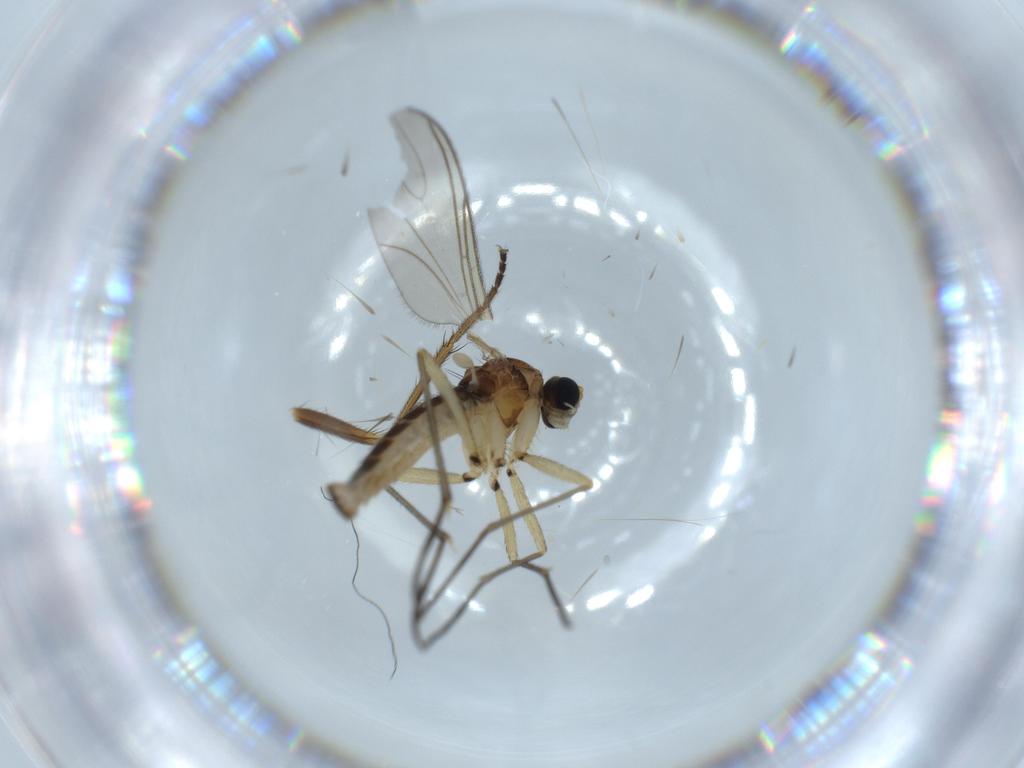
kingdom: Animalia
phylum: Arthropoda
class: Insecta
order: Diptera
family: Sciaridae
